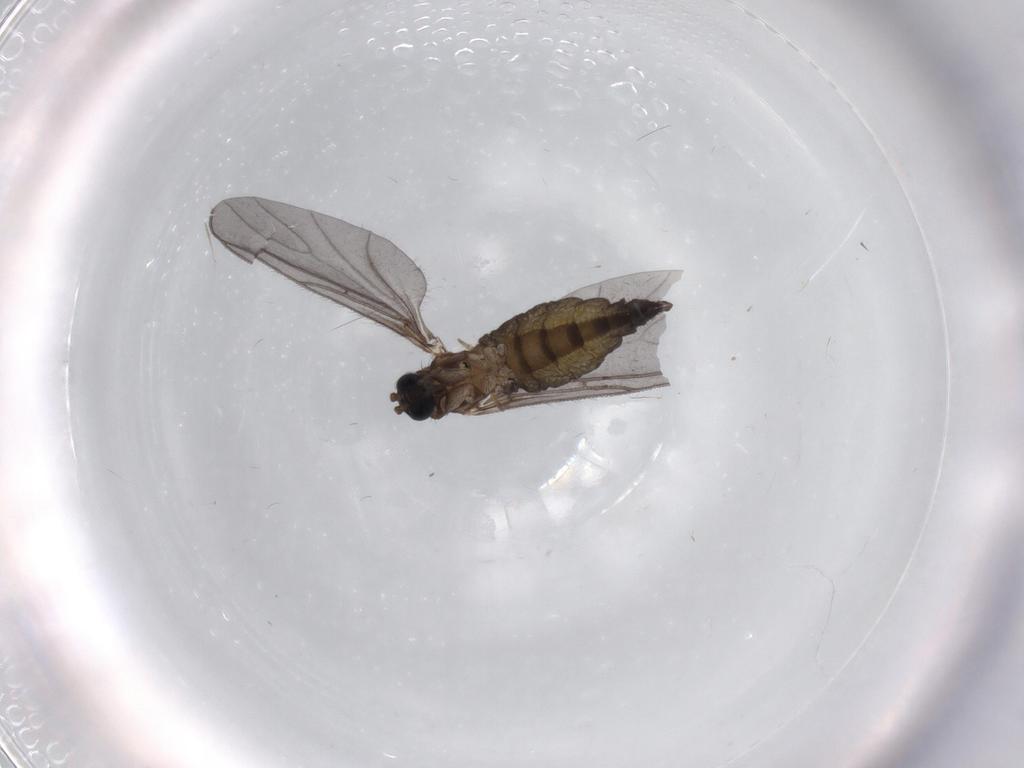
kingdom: Animalia
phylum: Arthropoda
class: Insecta
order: Diptera
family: Sciaridae
